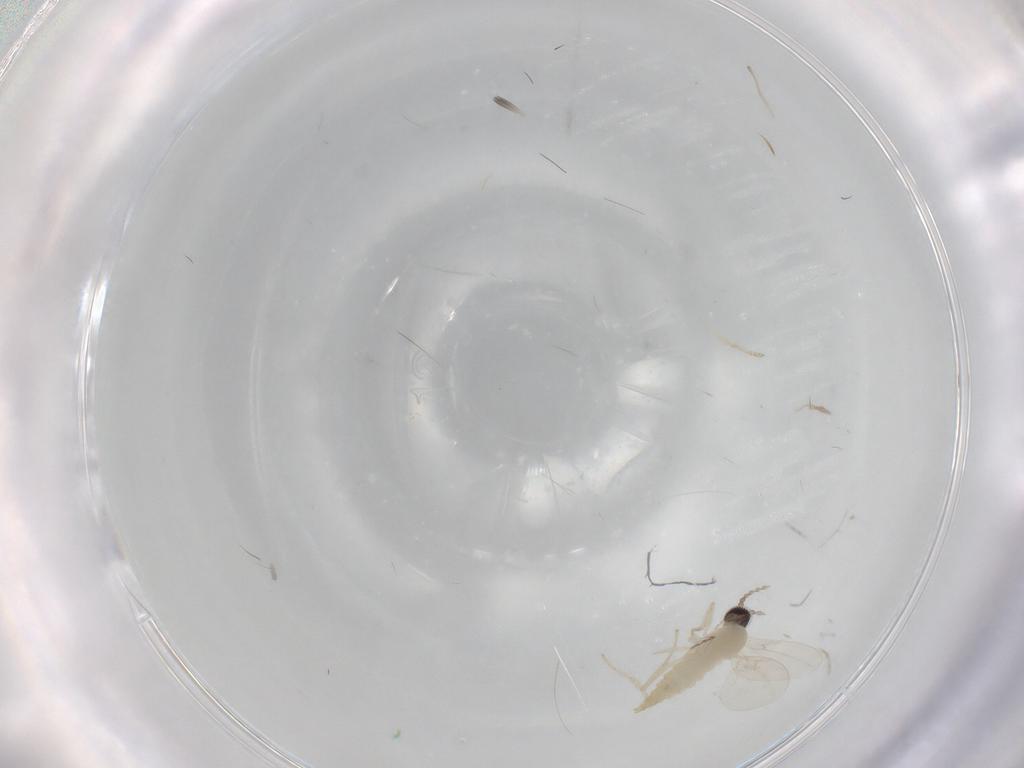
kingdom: Animalia
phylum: Arthropoda
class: Insecta
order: Diptera
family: Cecidomyiidae
